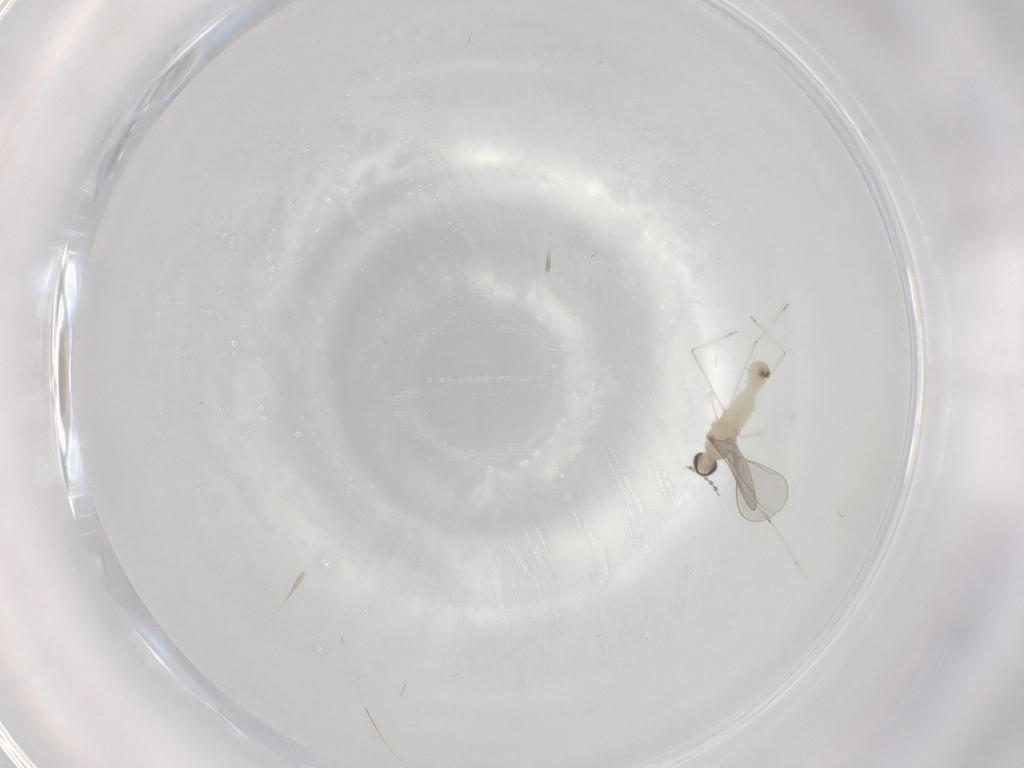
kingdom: Animalia
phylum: Arthropoda
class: Insecta
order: Diptera
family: Cecidomyiidae
